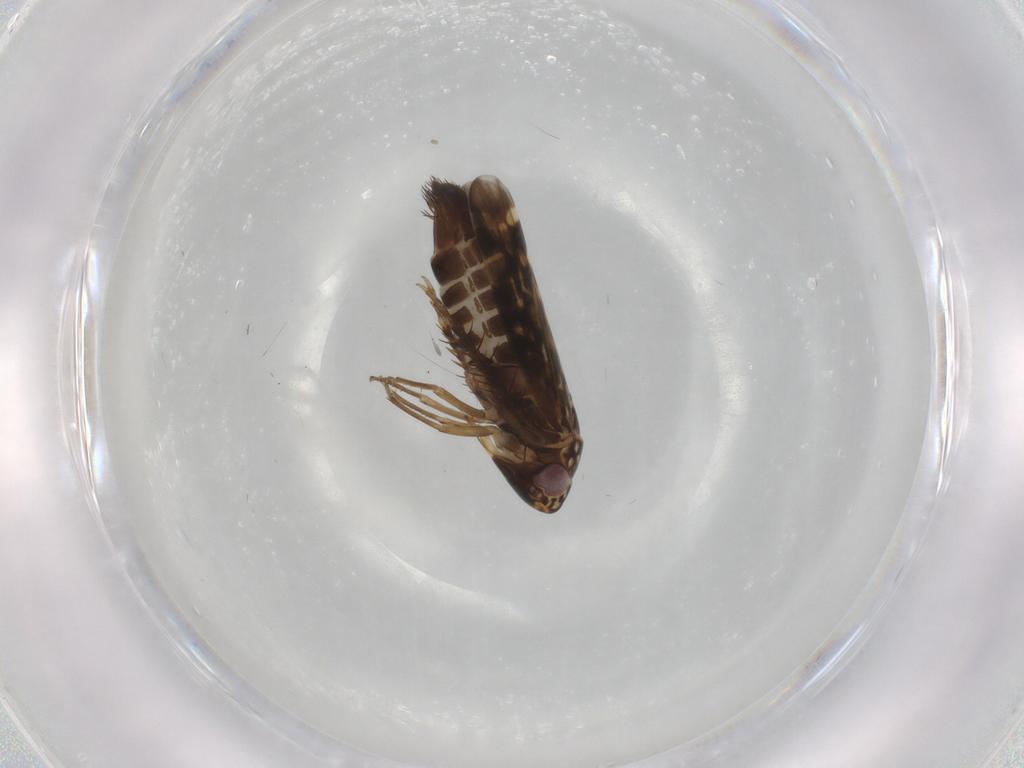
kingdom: Animalia
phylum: Arthropoda
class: Insecta
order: Hemiptera
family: Cicadellidae
